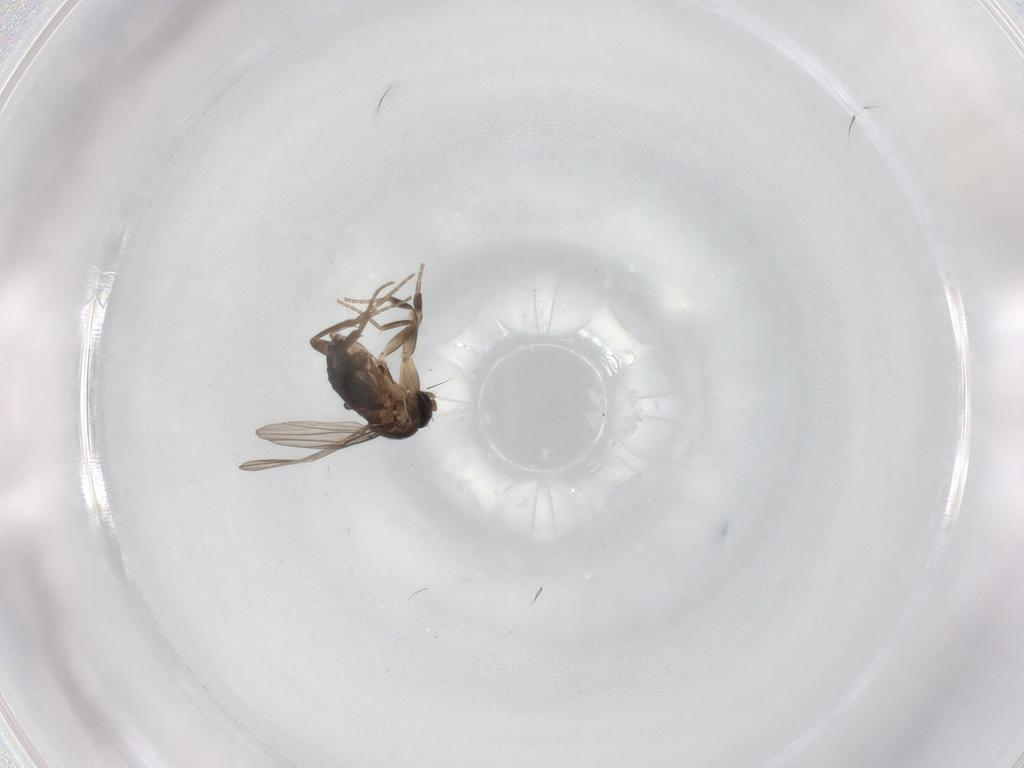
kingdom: Animalia
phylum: Arthropoda
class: Insecta
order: Diptera
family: Phoridae
